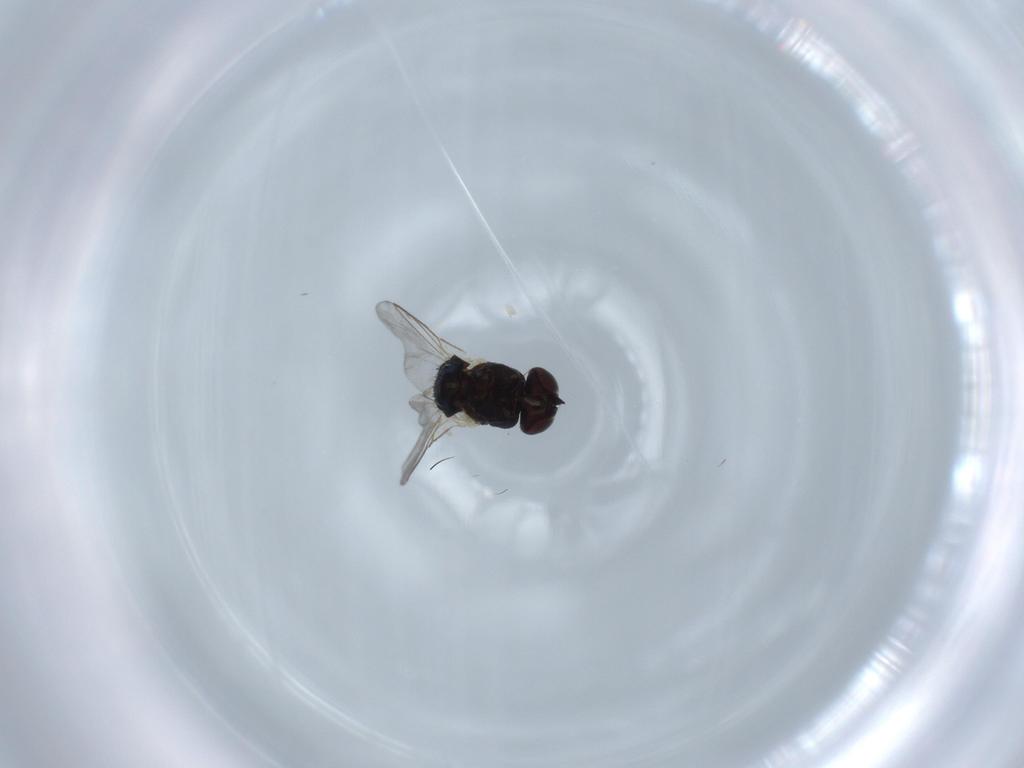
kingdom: Animalia
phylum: Arthropoda
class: Insecta
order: Diptera
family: Agromyzidae
